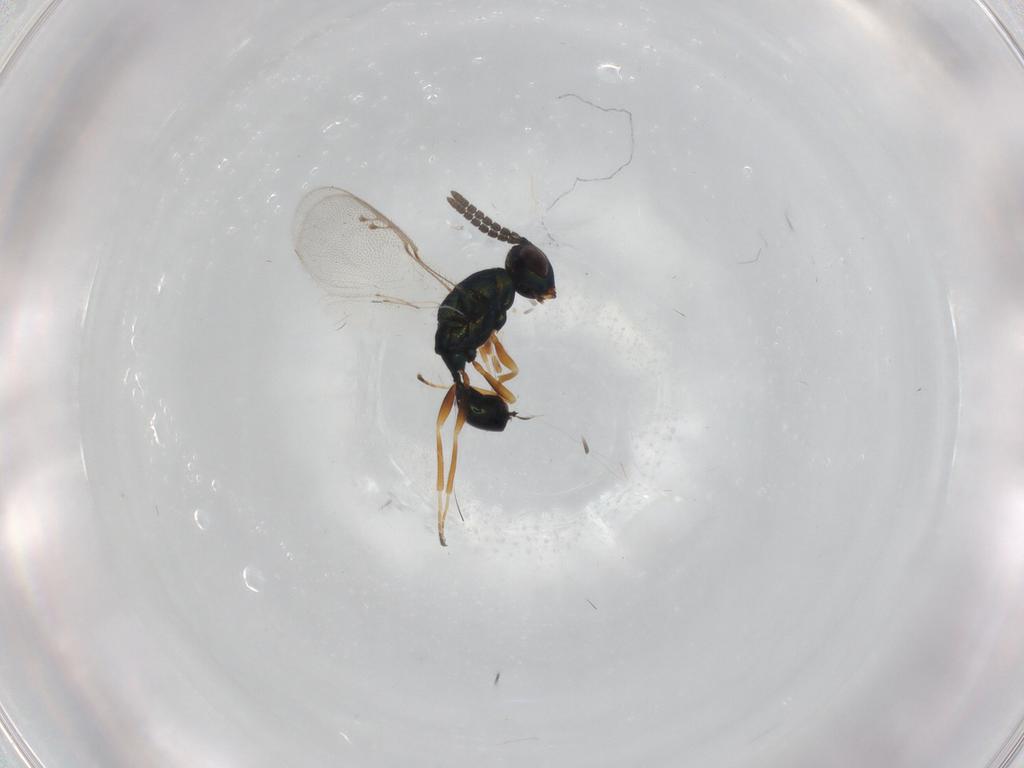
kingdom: Animalia
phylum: Arthropoda
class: Insecta
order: Hymenoptera
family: Pteromalidae
